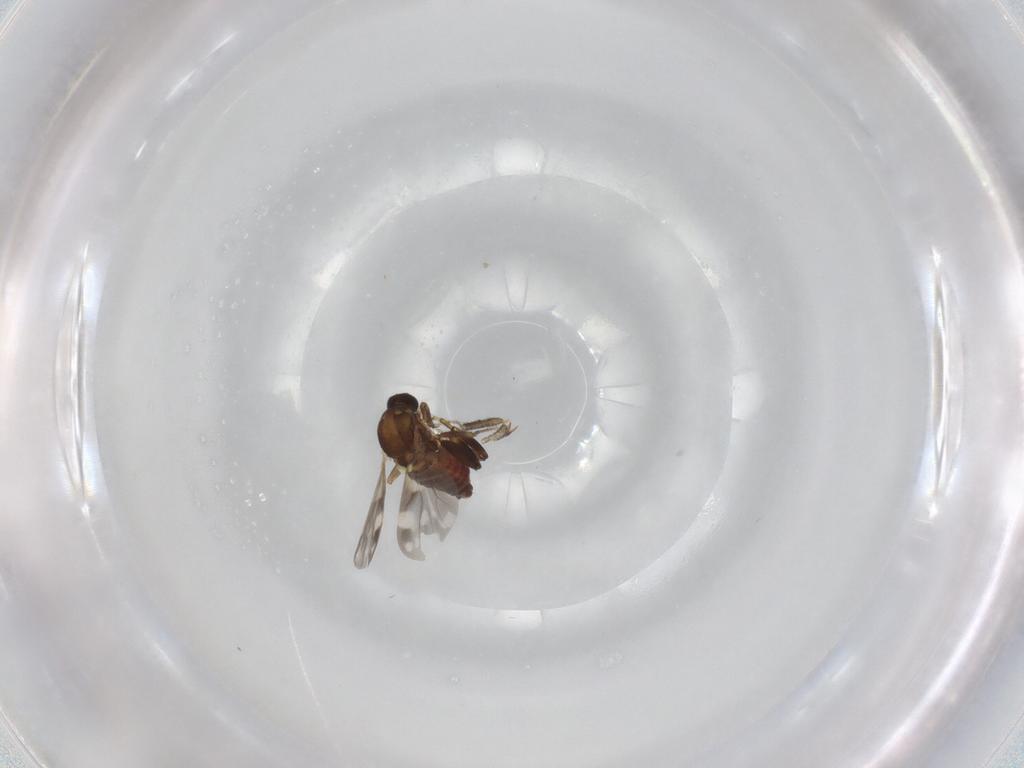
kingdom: Animalia
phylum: Arthropoda
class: Insecta
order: Diptera
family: Ceratopogonidae
